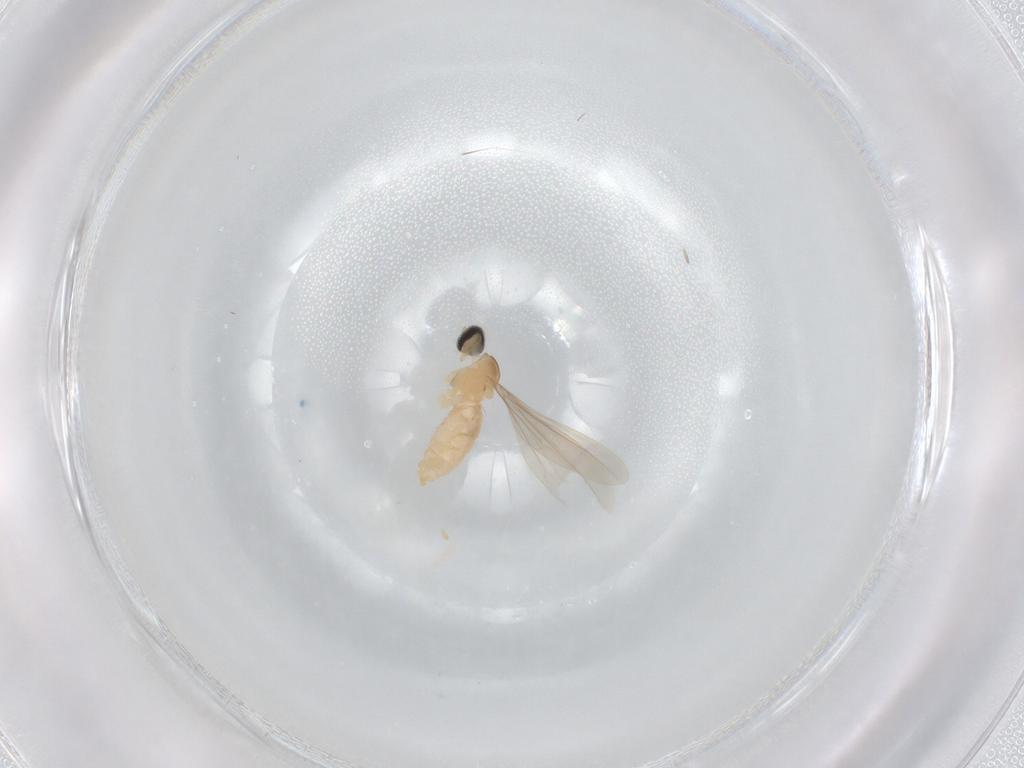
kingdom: Animalia
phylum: Arthropoda
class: Insecta
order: Diptera
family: Cecidomyiidae
